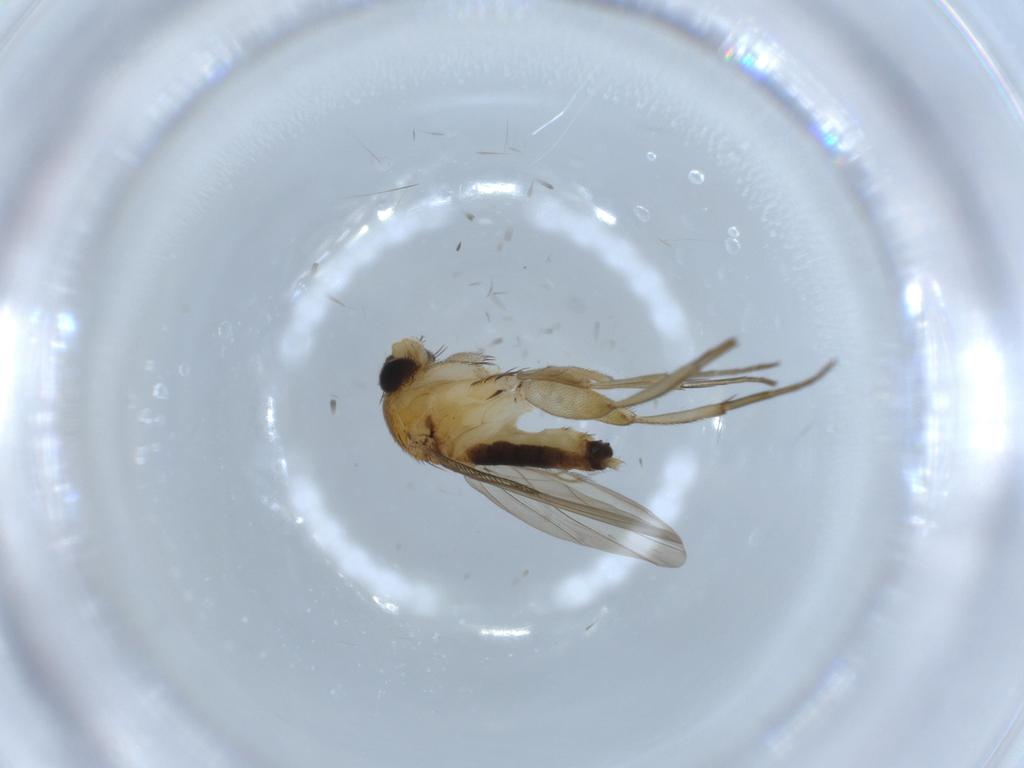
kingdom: Animalia
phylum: Arthropoda
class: Insecta
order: Diptera
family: Phoridae
